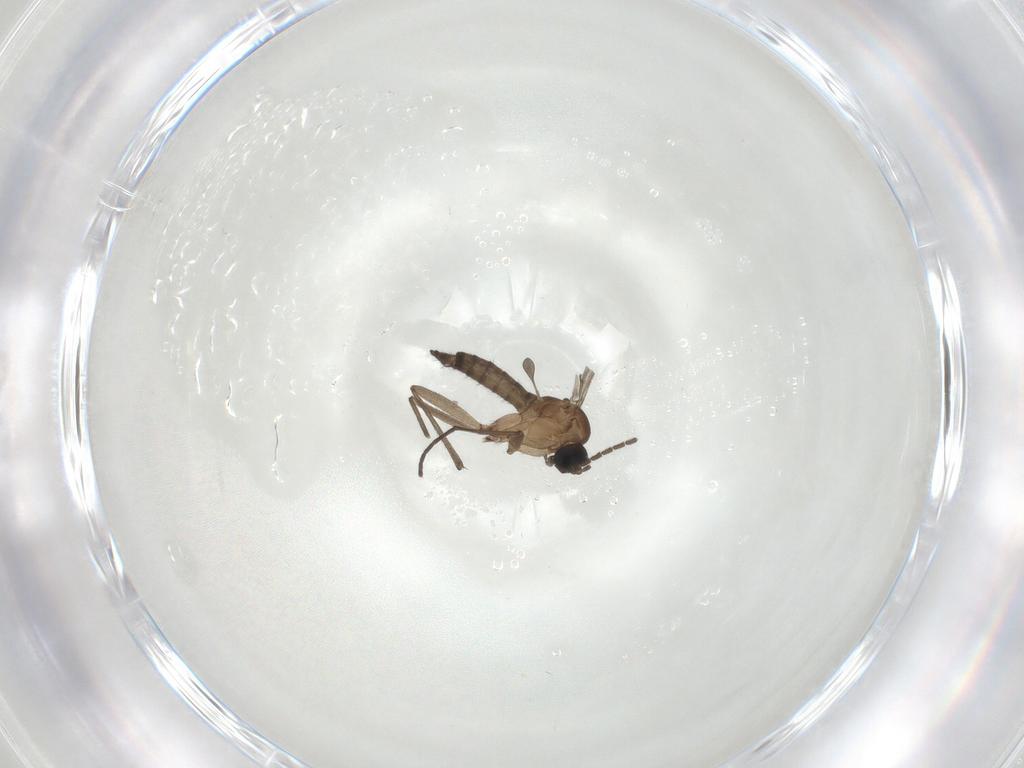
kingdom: Animalia
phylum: Arthropoda
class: Insecta
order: Diptera
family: Sciaridae
